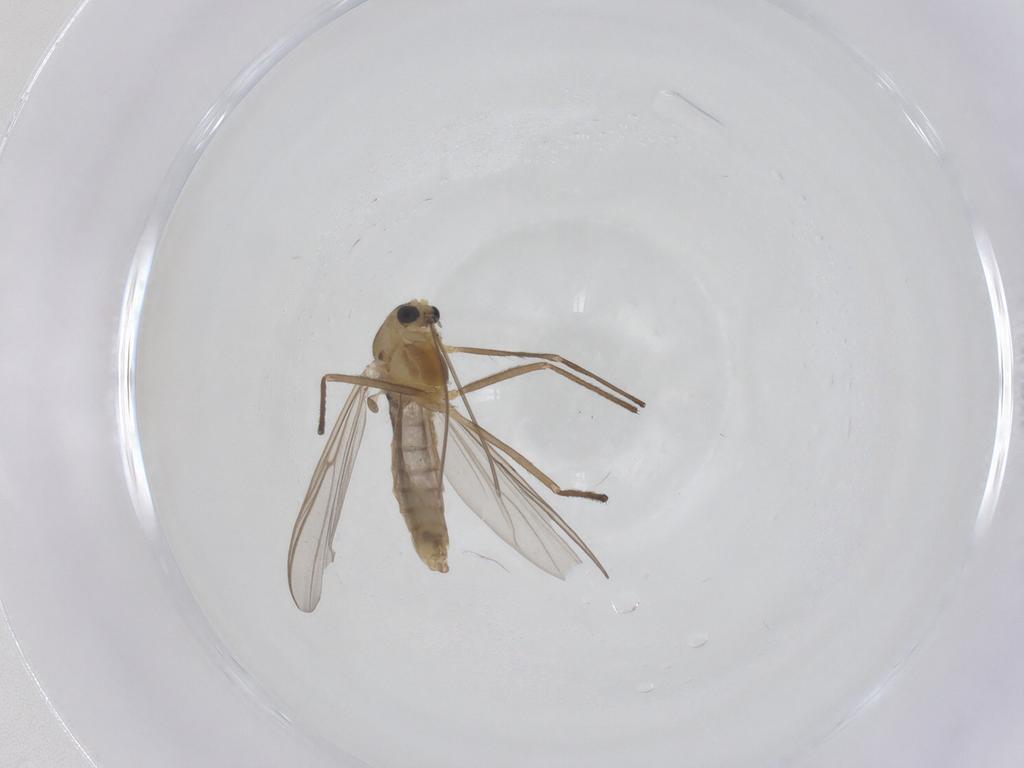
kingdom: Animalia
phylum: Arthropoda
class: Insecta
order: Diptera
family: Chironomidae
